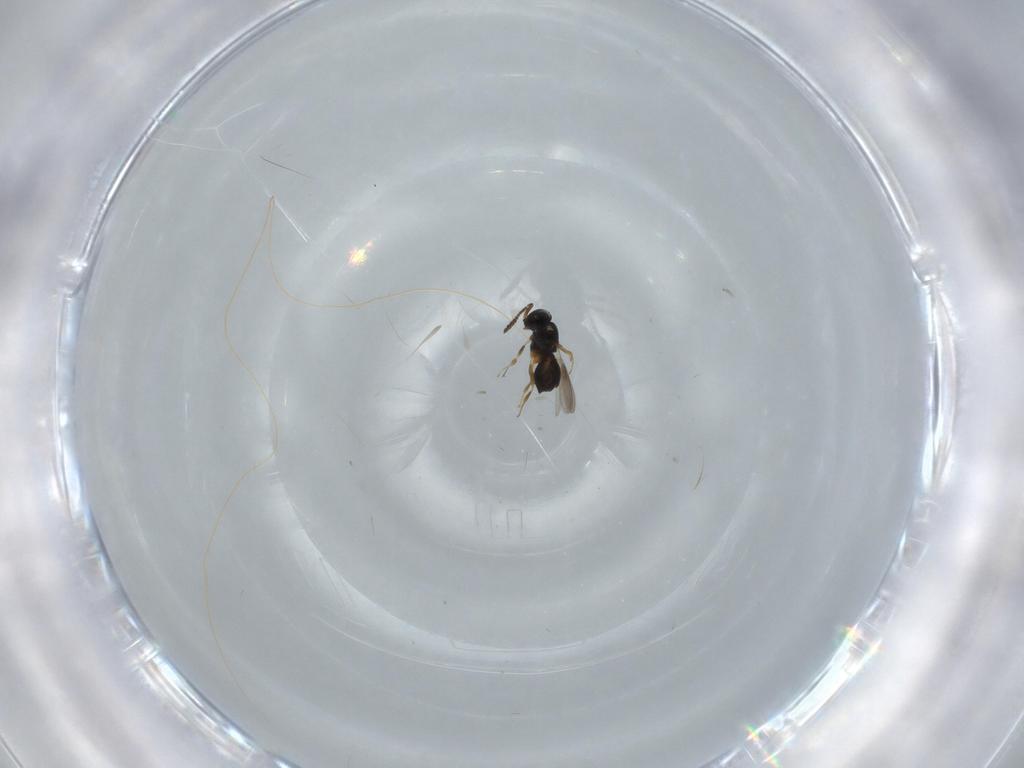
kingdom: Animalia
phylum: Arthropoda
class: Insecta
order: Hymenoptera
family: Scelionidae
